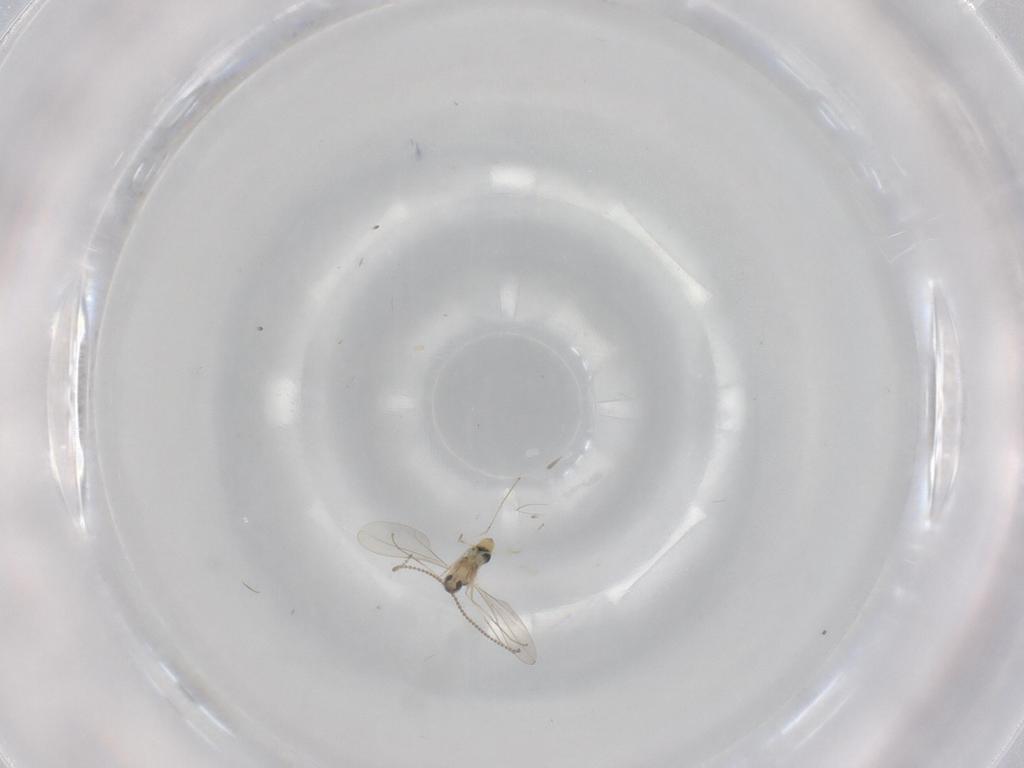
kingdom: Animalia
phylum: Arthropoda
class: Insecta
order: Diptera
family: Cecidomyiidae
